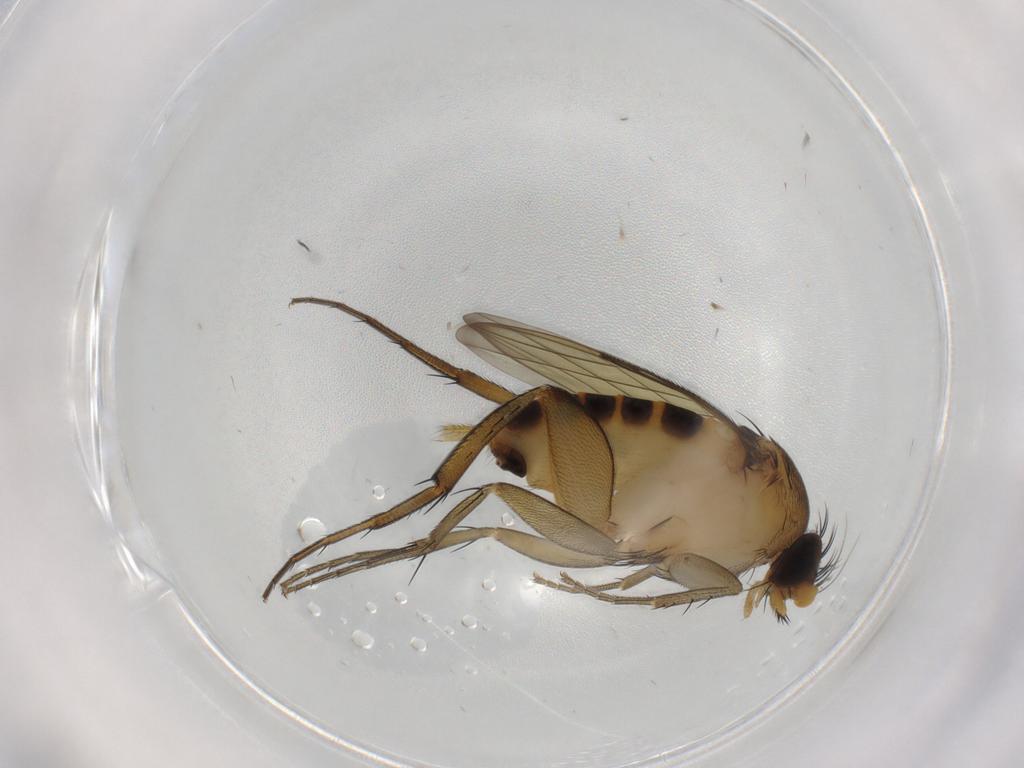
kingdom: Animalia
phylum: Arthropoda
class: Insecta
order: Diptera
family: Phoridae
